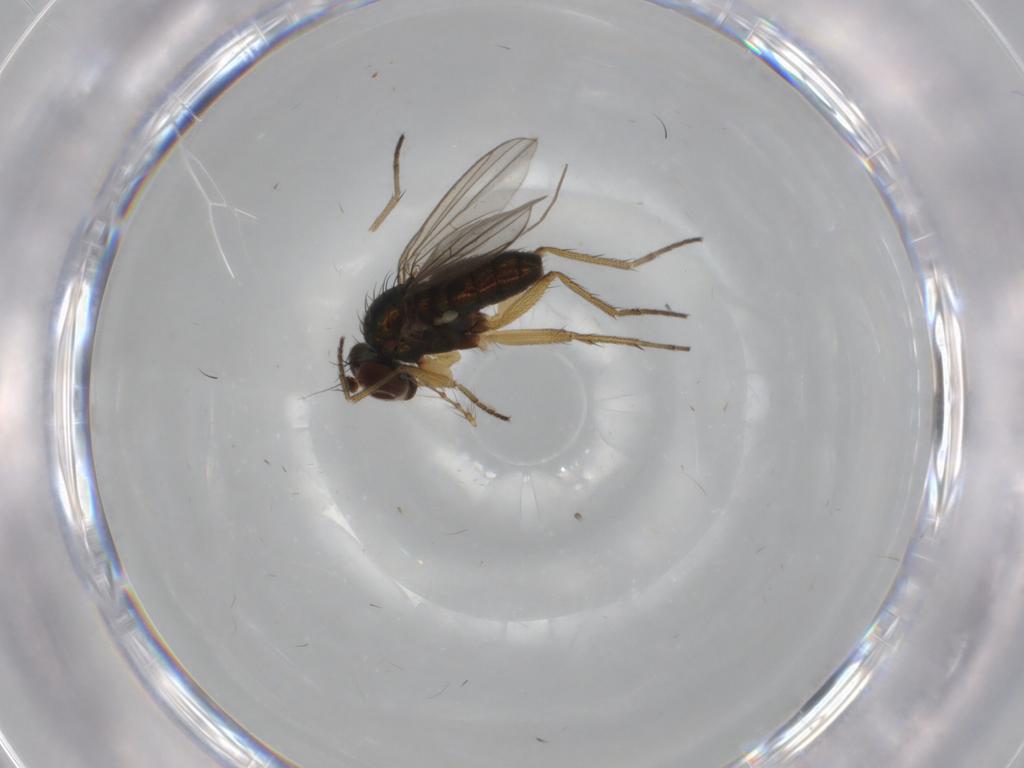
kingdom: Animalia
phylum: Arthropoda
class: Insecta
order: Diptera
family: Dolichopodidae
